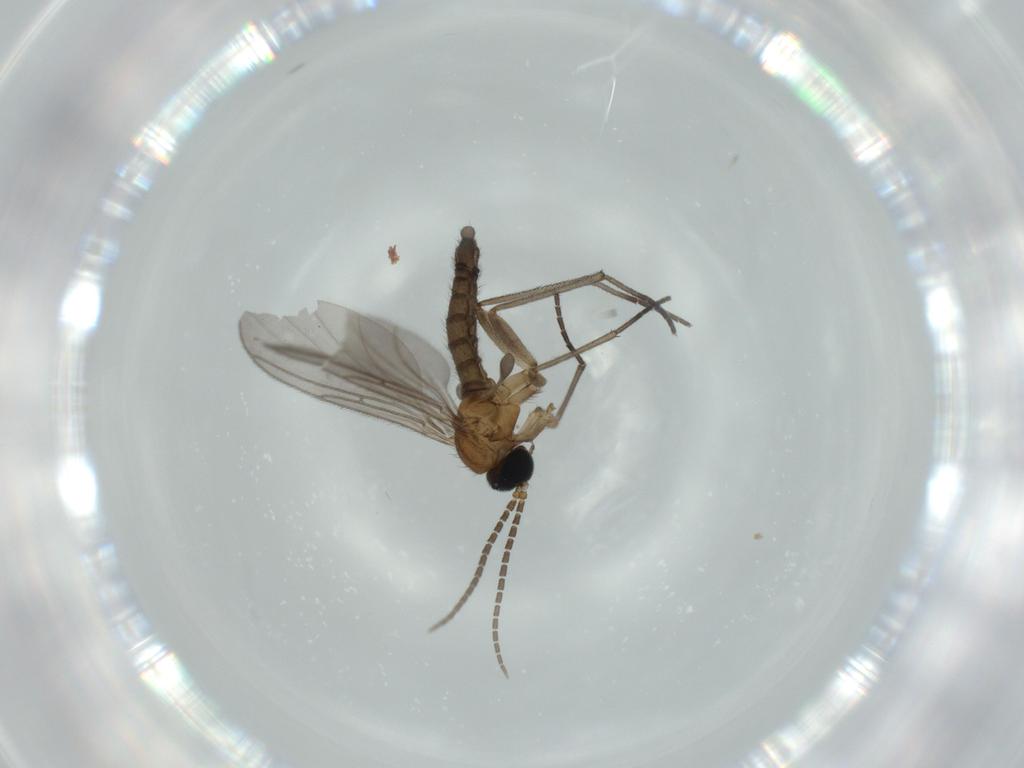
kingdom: Animalia
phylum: Arthropoda
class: Insecta
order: Diptera
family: Sciaridae
